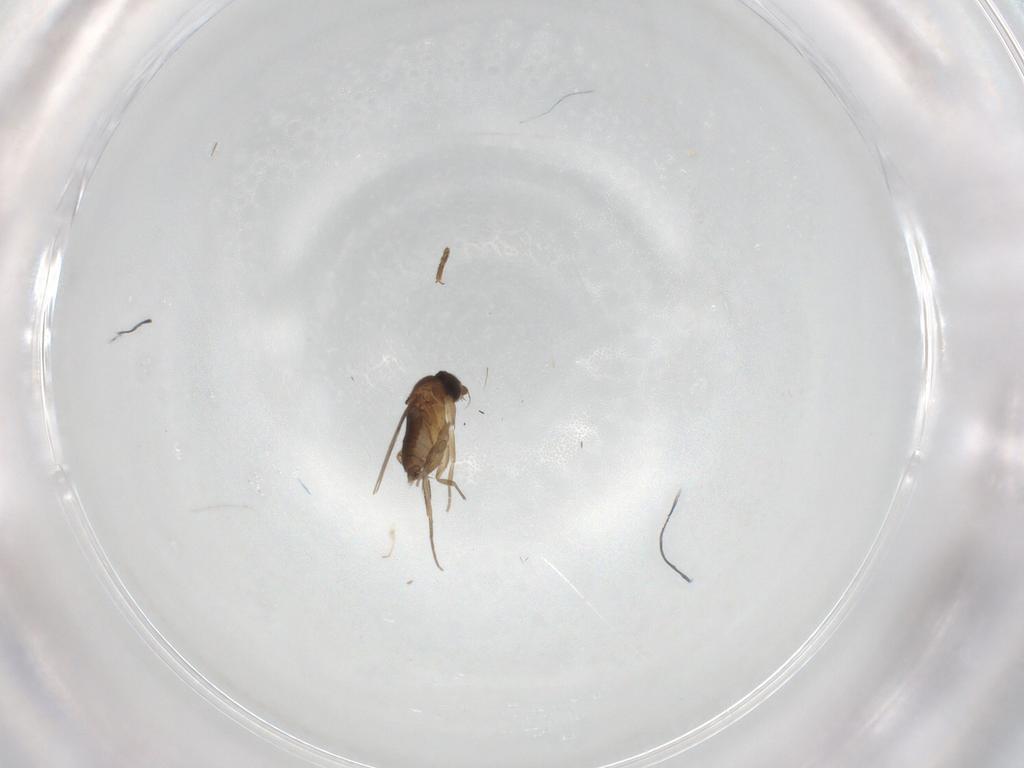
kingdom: Animalia
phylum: Arthropoda
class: Insecta
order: Diptera
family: Phoridae
